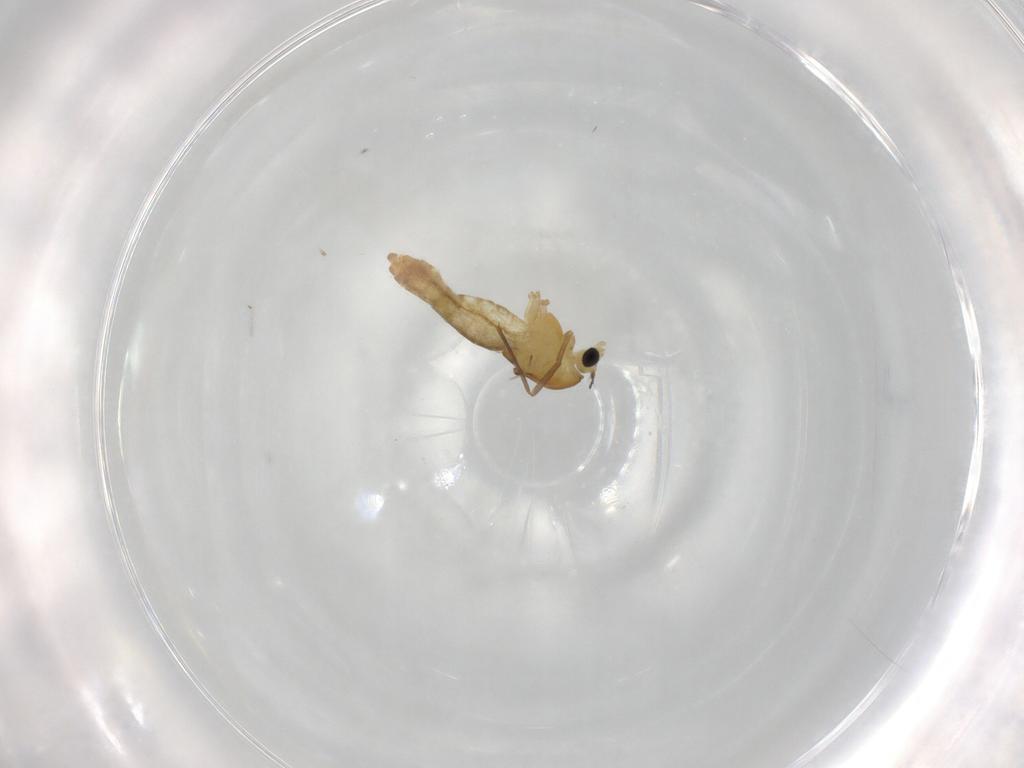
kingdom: Animalia
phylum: Arthropoda
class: Insecta
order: Diptera
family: Chironomidae
